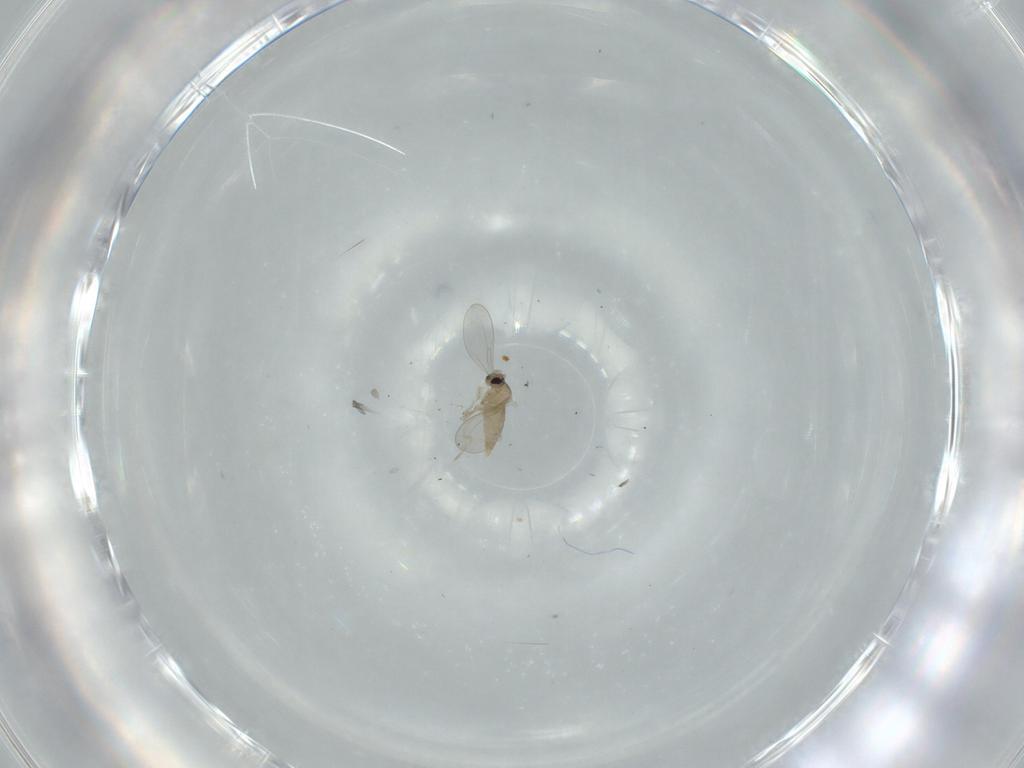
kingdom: Animalia
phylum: Arthropoda
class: Insecta
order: Diptera
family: Cecidomyiidae
